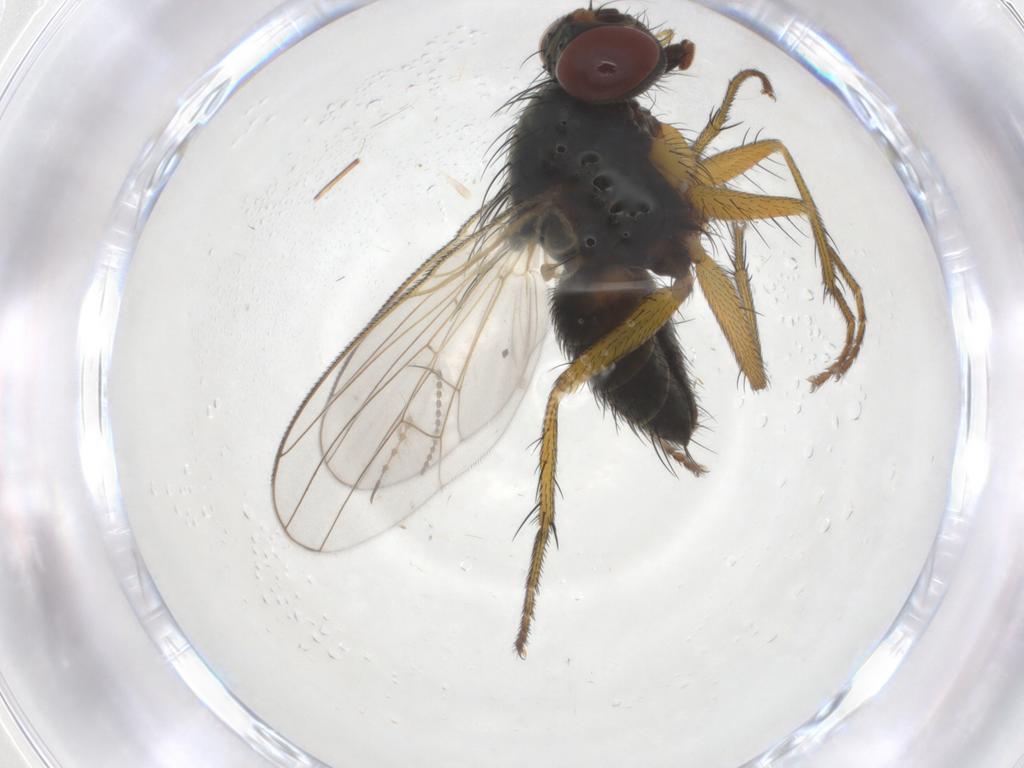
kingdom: Animalia
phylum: Arthropoda
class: Insecta
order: Diptera
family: Muscidae
